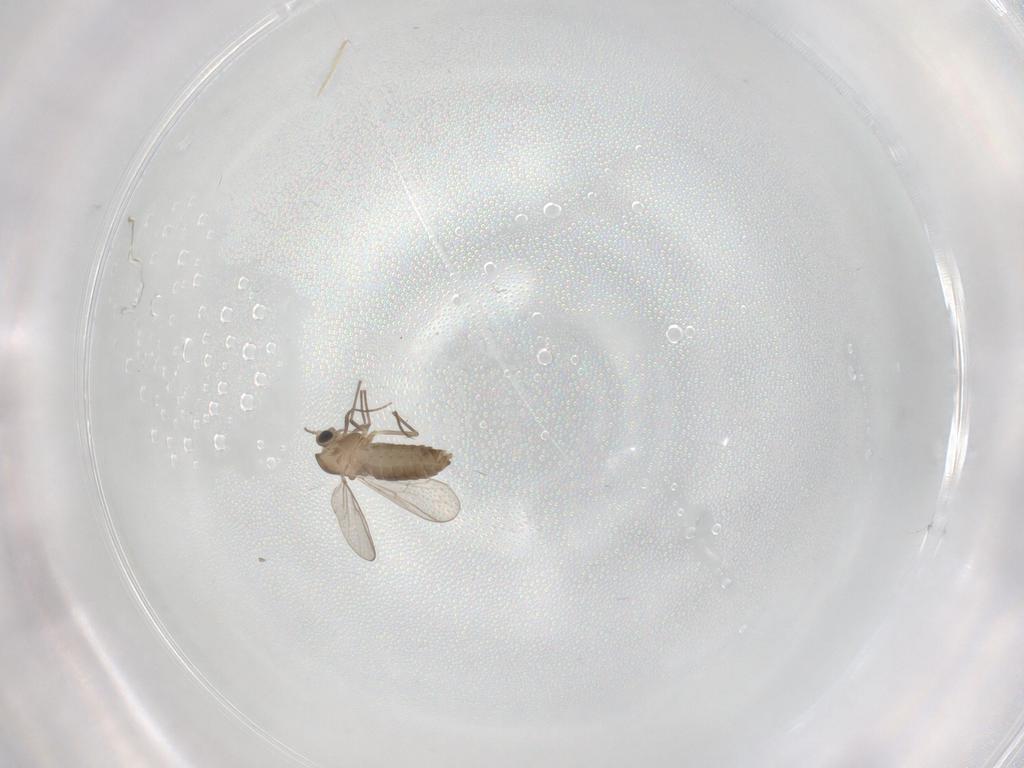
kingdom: Animalia
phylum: Arthropoda
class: Insecta
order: Diptera
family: Chironomidae
